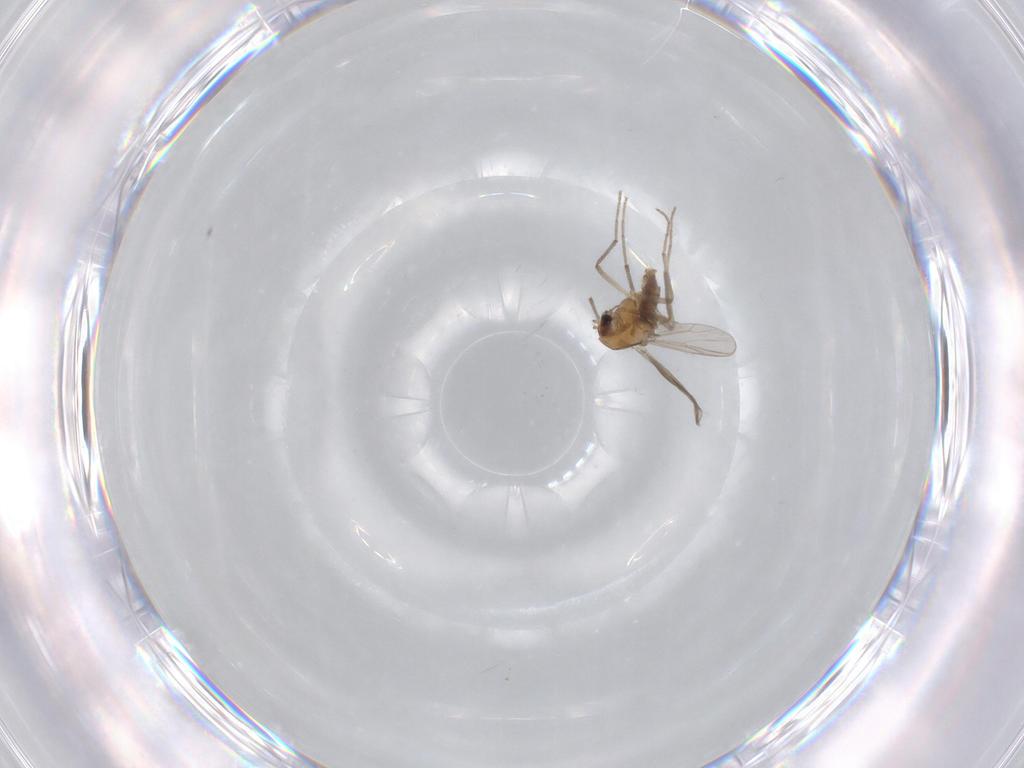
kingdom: Animalia
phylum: Arthropoda
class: Insecta
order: Diptera
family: Chironomidae
